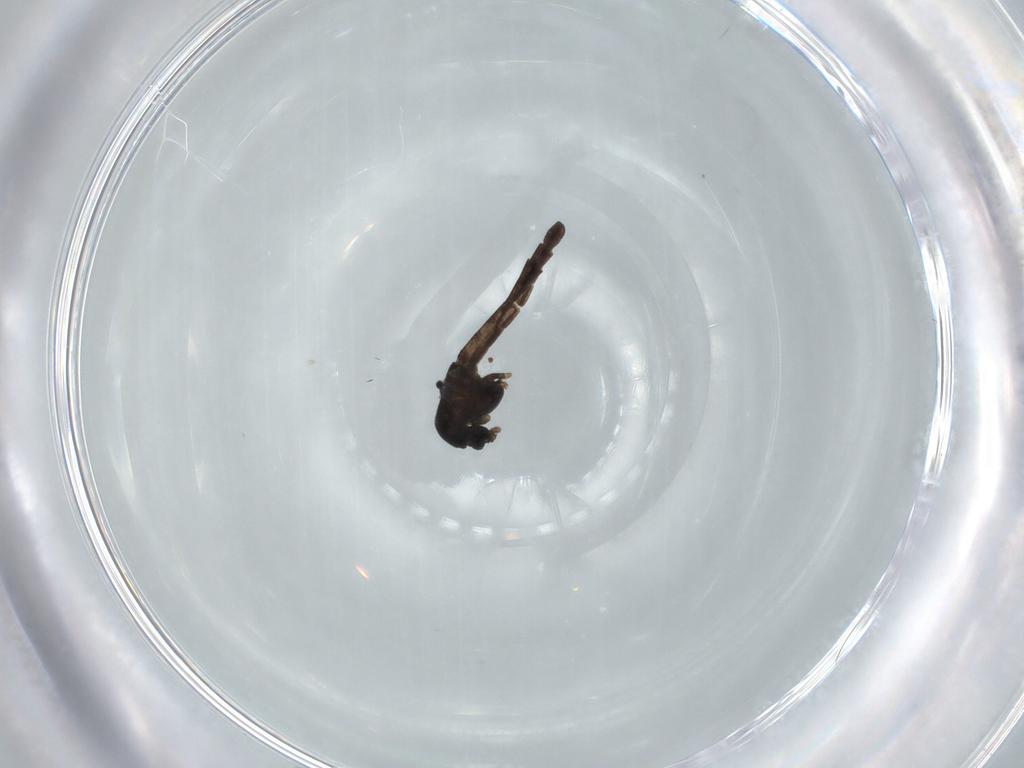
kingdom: Animalia
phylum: Arthropoda
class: Insecta
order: Diptera
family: Chironomidae
